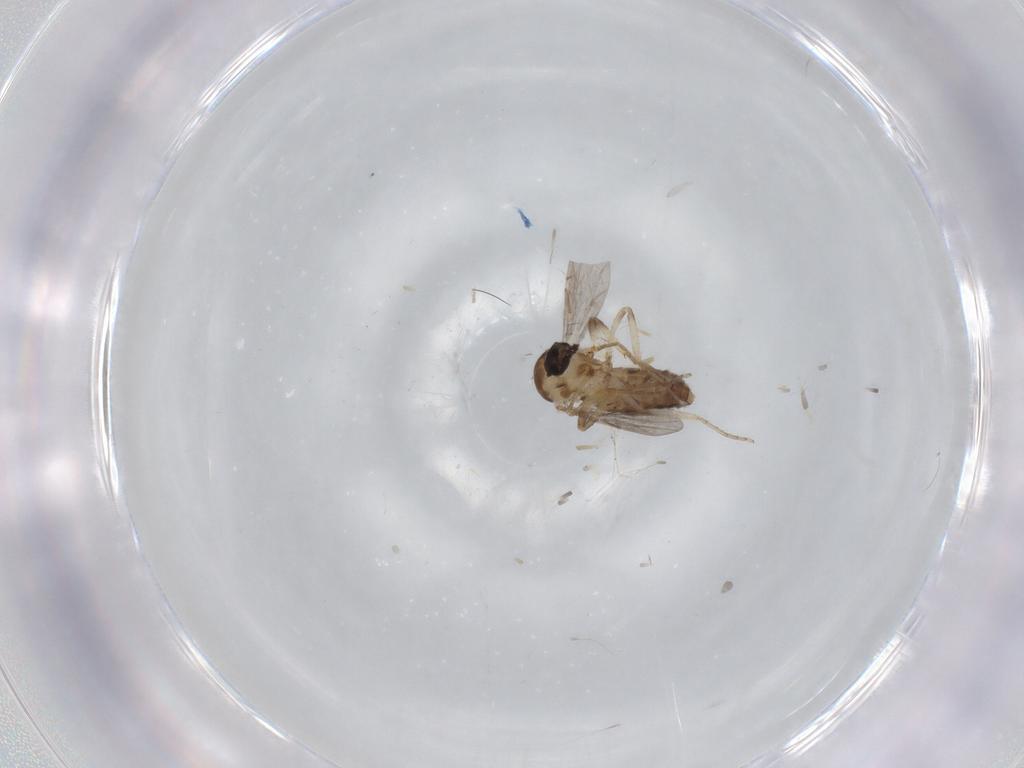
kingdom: Animalia
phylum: Arthropoda
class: Insecta
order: Diptera
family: Ceratopogonidae
